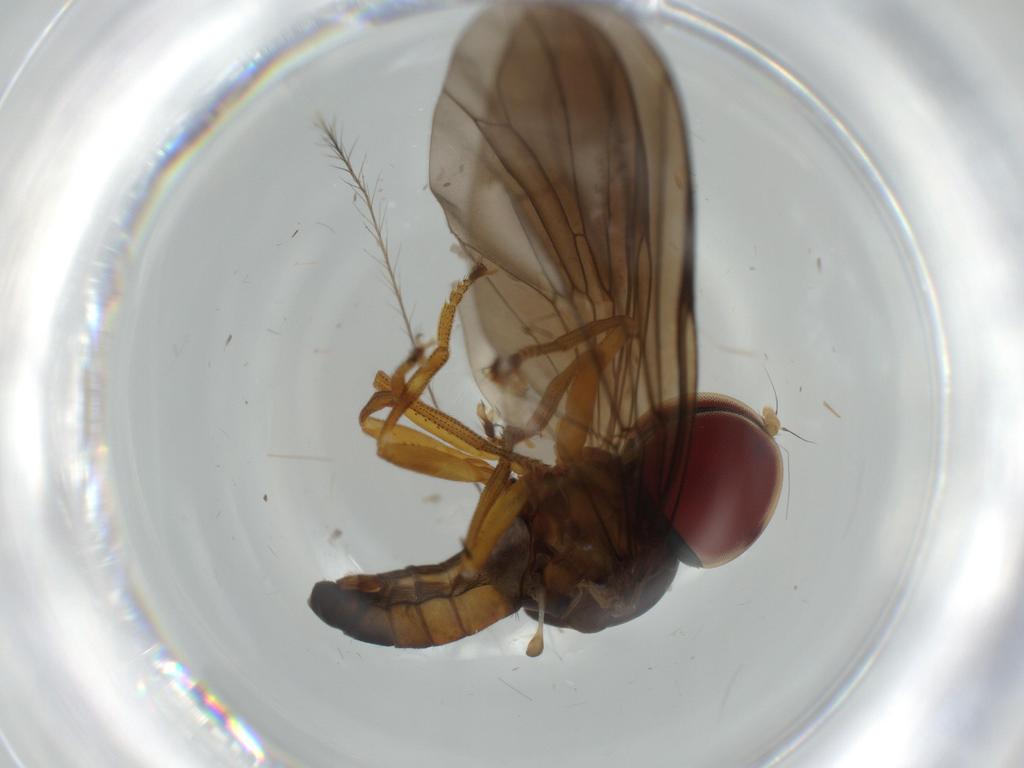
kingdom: Animalia
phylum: Arthropoda
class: Insecta
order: Diptera
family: Pipunculidae
